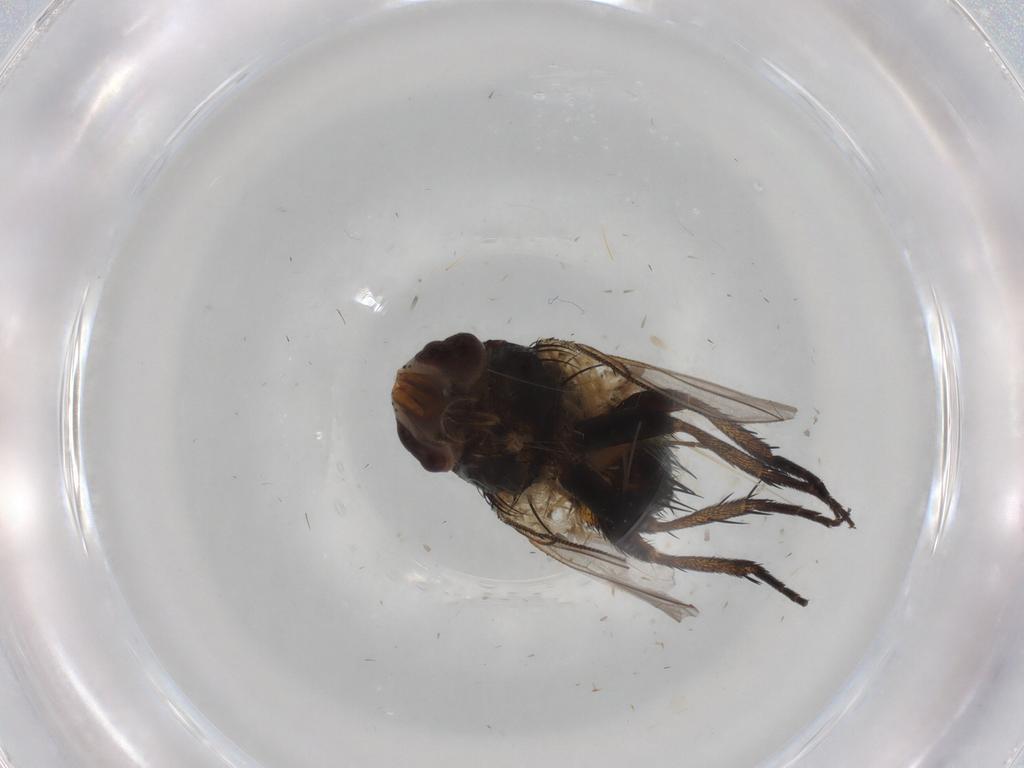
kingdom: Animalia
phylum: Arthropoda
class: Insecta
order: Diptera
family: Cecidomyiidae
